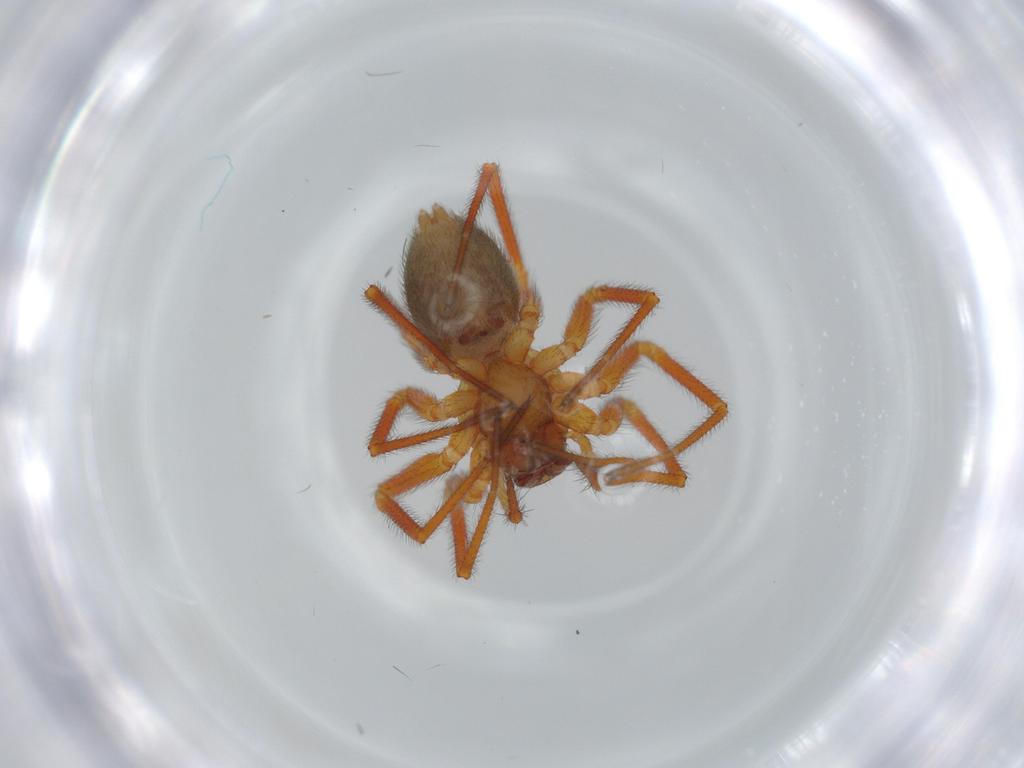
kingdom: Animalia
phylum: Arthropoda
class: Arachnida
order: Araneae
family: Linyphiidae
